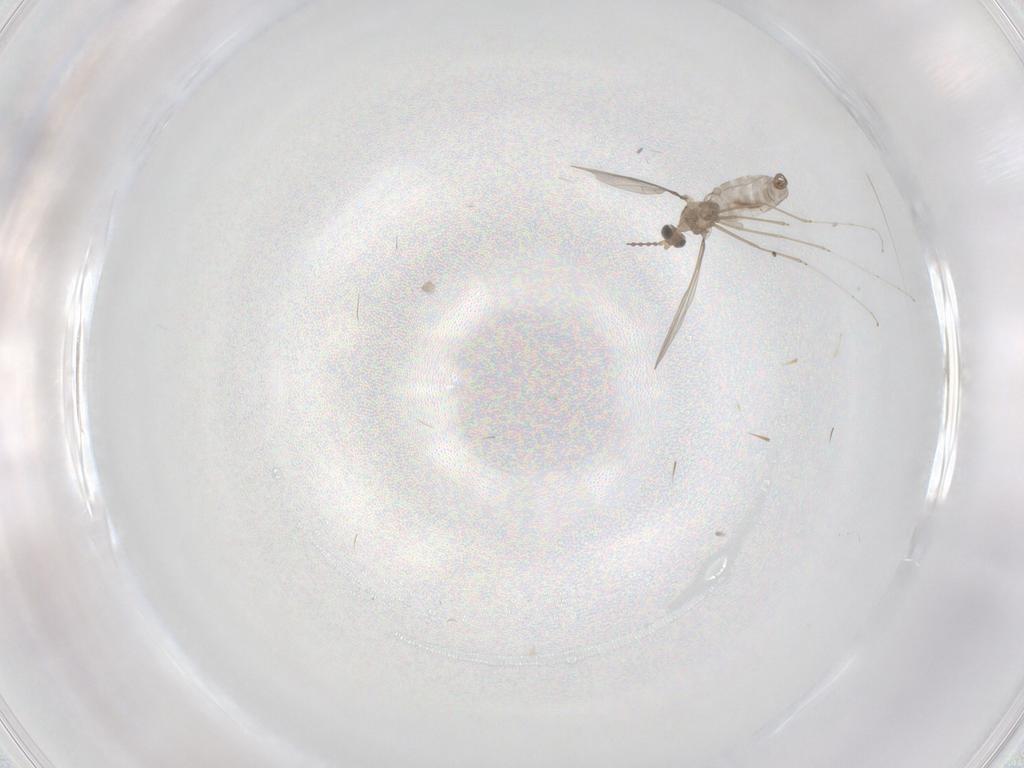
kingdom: Animalia
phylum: Arthropoda
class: Insecta
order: Diptera
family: Cecidomyiidae
